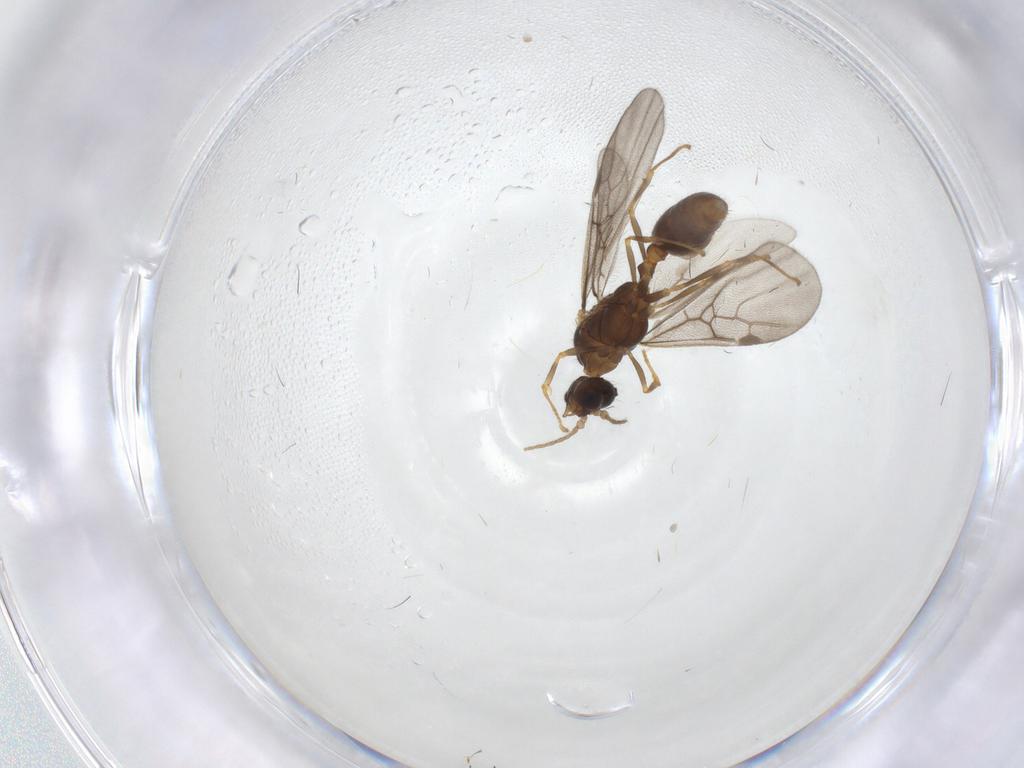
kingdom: Animalia
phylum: Arthropoda
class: Insecta
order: Hymenoptera
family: Formicidae
